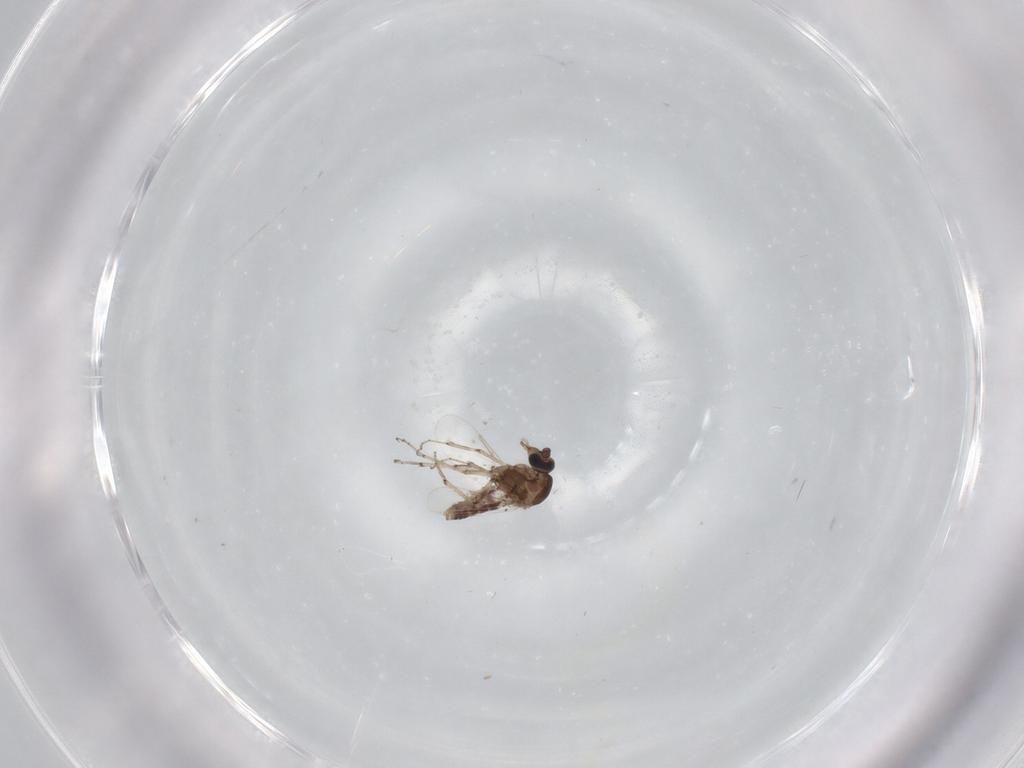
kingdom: Animalia
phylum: Arthropoda
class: Insecta
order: Diptera
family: Ceratopogonidae
